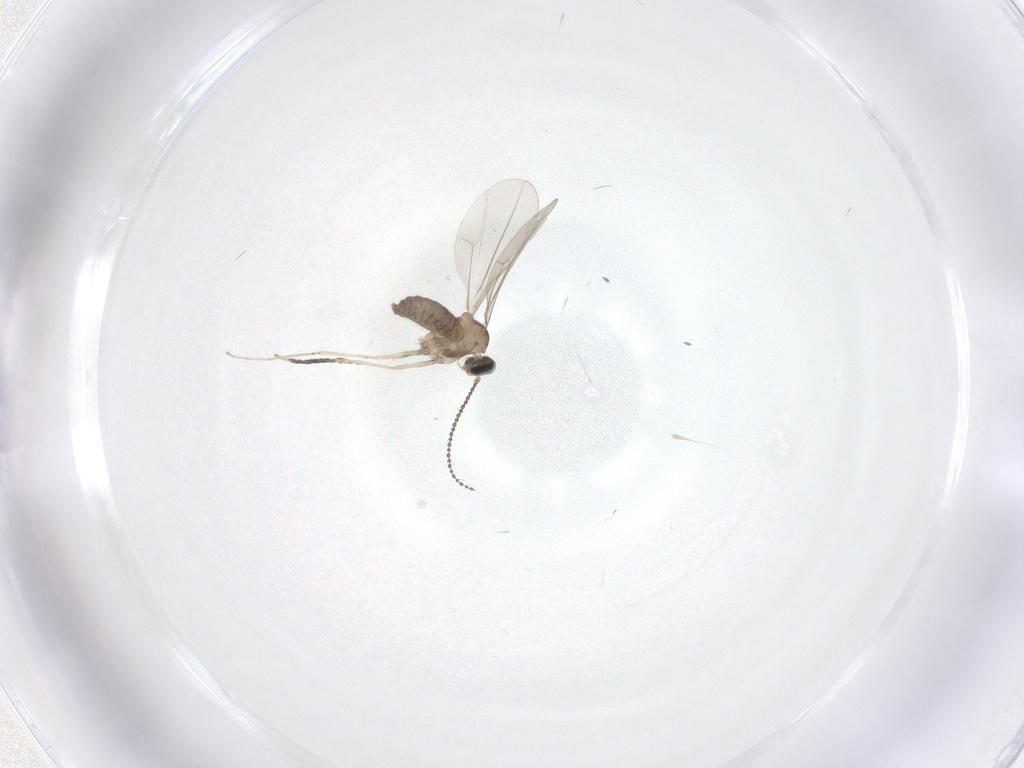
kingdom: Animalia
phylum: Arthropoda
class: Insecta
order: Diptera
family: Cecidomyiidae
